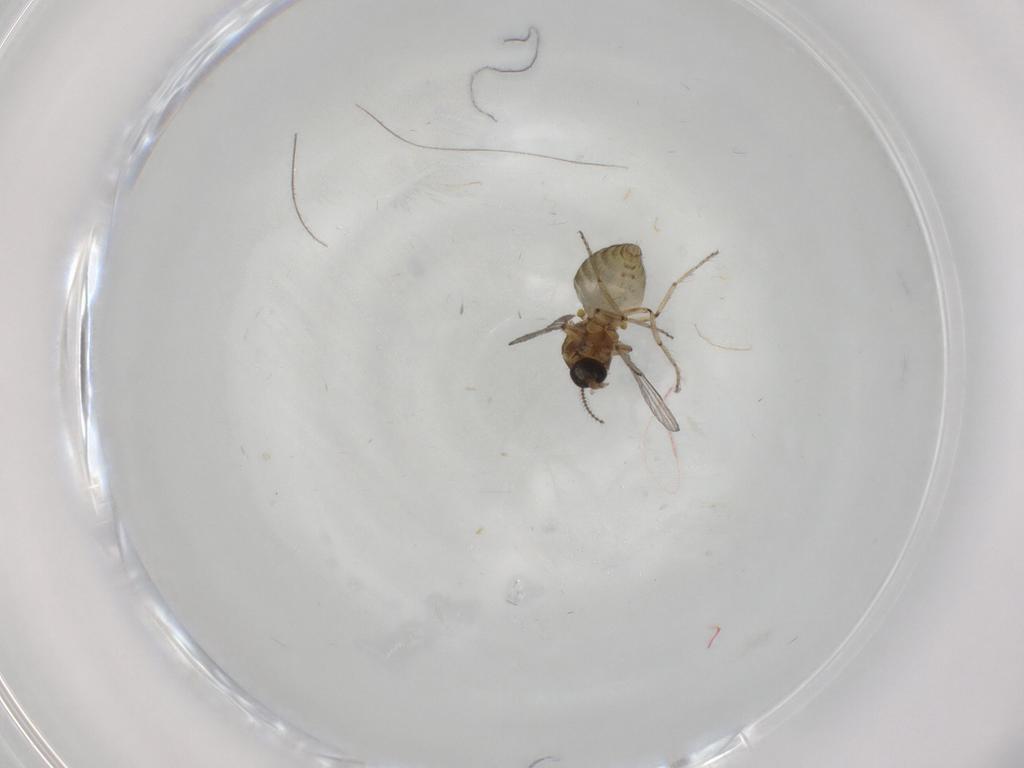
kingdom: Animalia
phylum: Arthropoda
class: Insecta
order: Diptera
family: Ceratopogonidae
